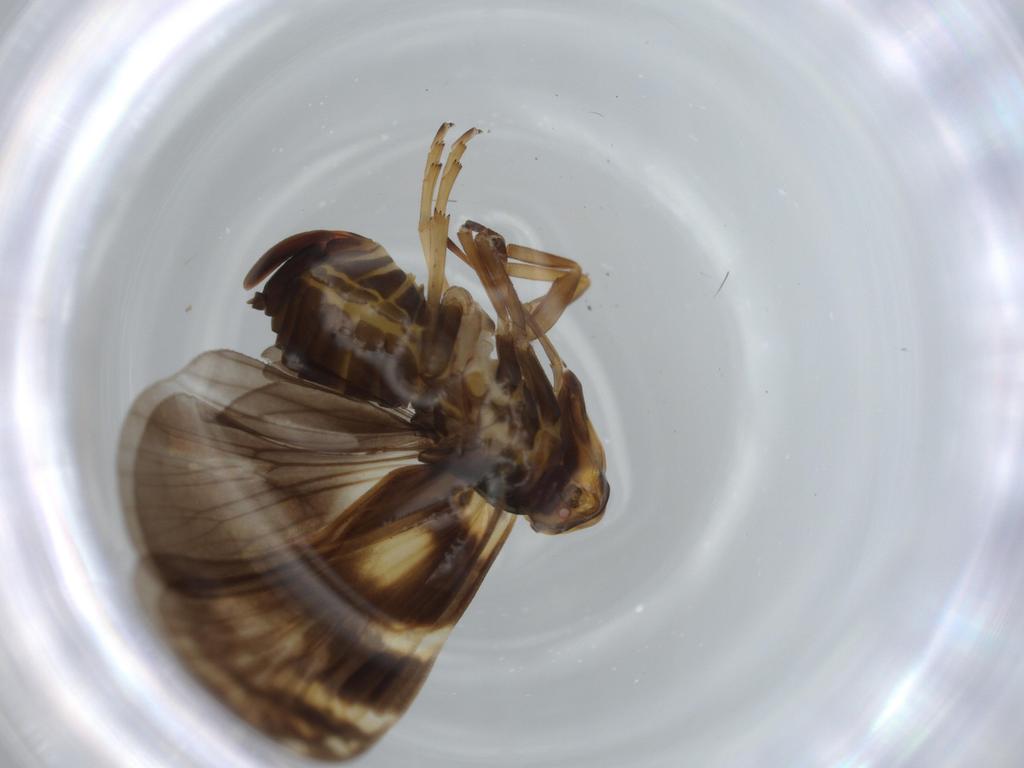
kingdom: Animalia
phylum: Arthropoda
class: Insecta
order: Hemiptera
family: Cixiidae
